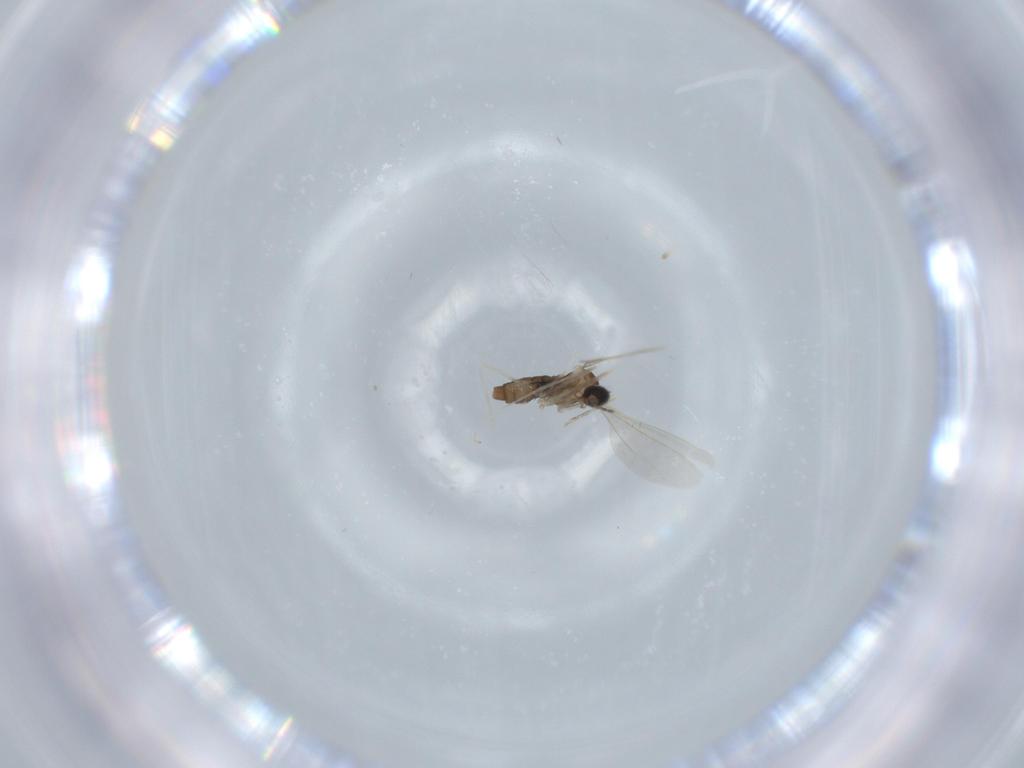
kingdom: Animalia
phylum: Arthropoda
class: Insecta
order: Diptera
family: Cecidomyiidae
